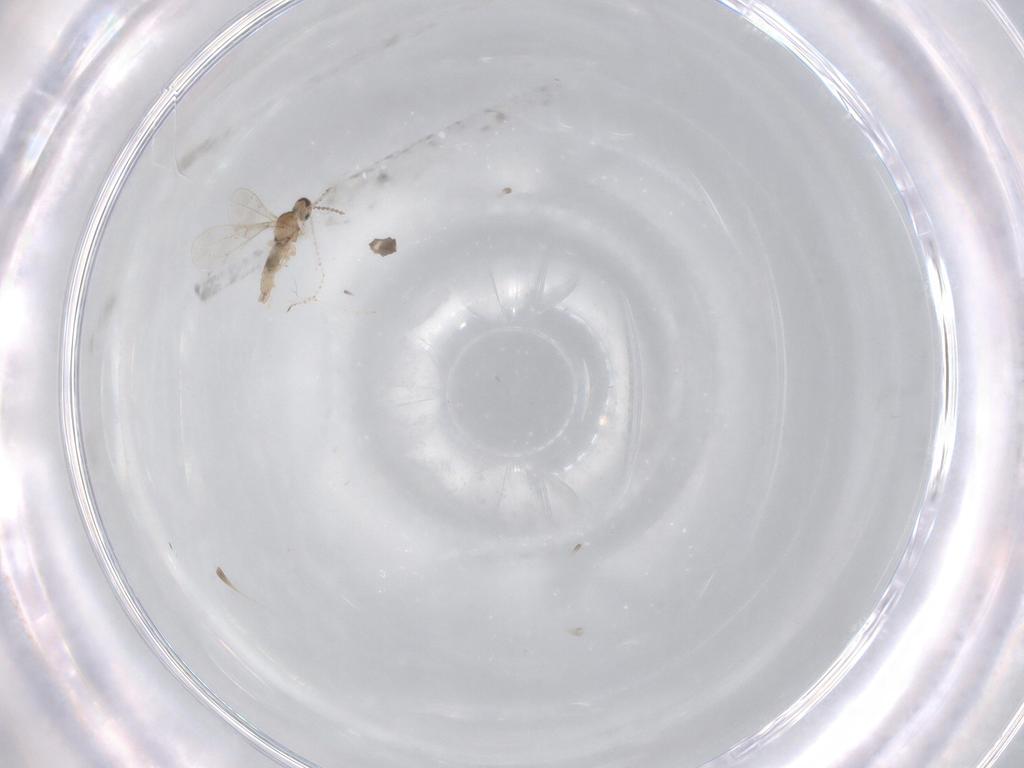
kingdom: Animalia
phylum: Arthropoda
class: Insecta
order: Diptera
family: Cecidomyiidae
